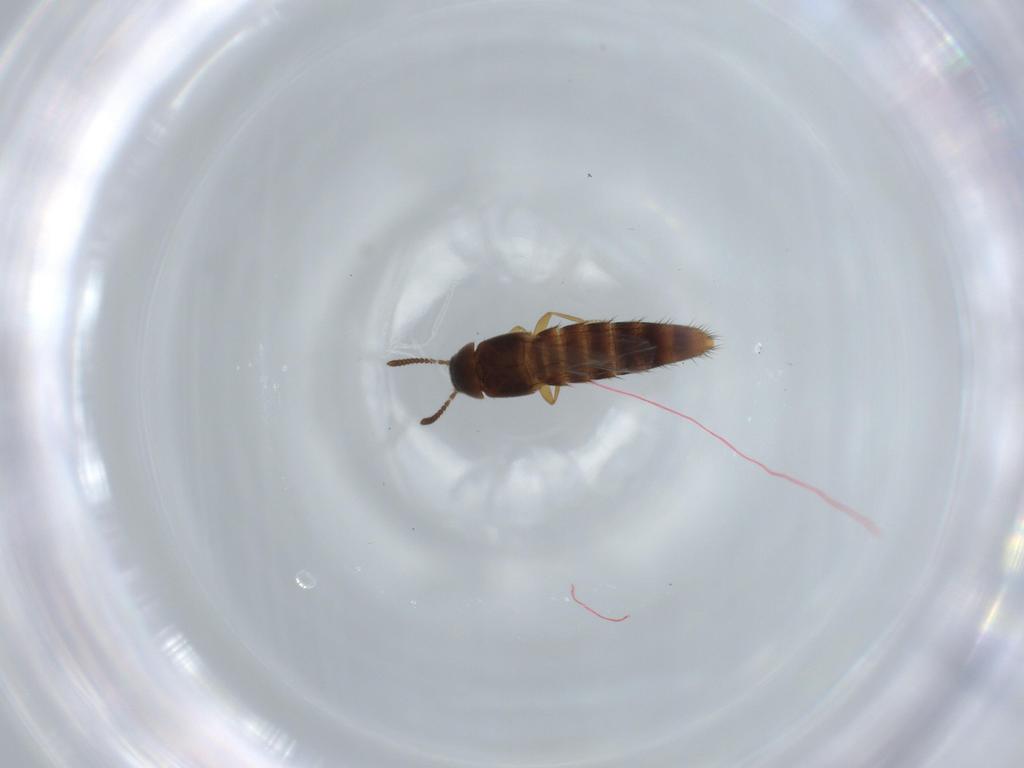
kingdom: Animalia
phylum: Arthropoda
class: Insecta
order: Coleoptera
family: Staphylinidae
